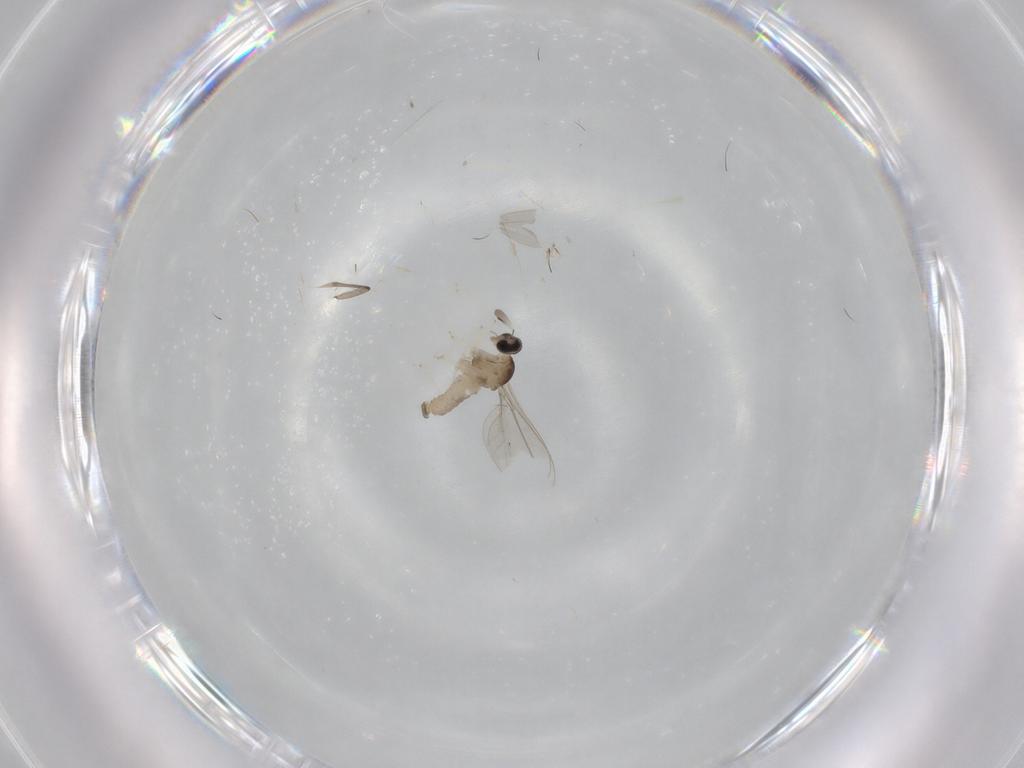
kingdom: Animalia
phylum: Arthropoda
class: Insecta
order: Diptera
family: Cecidomyiidae
